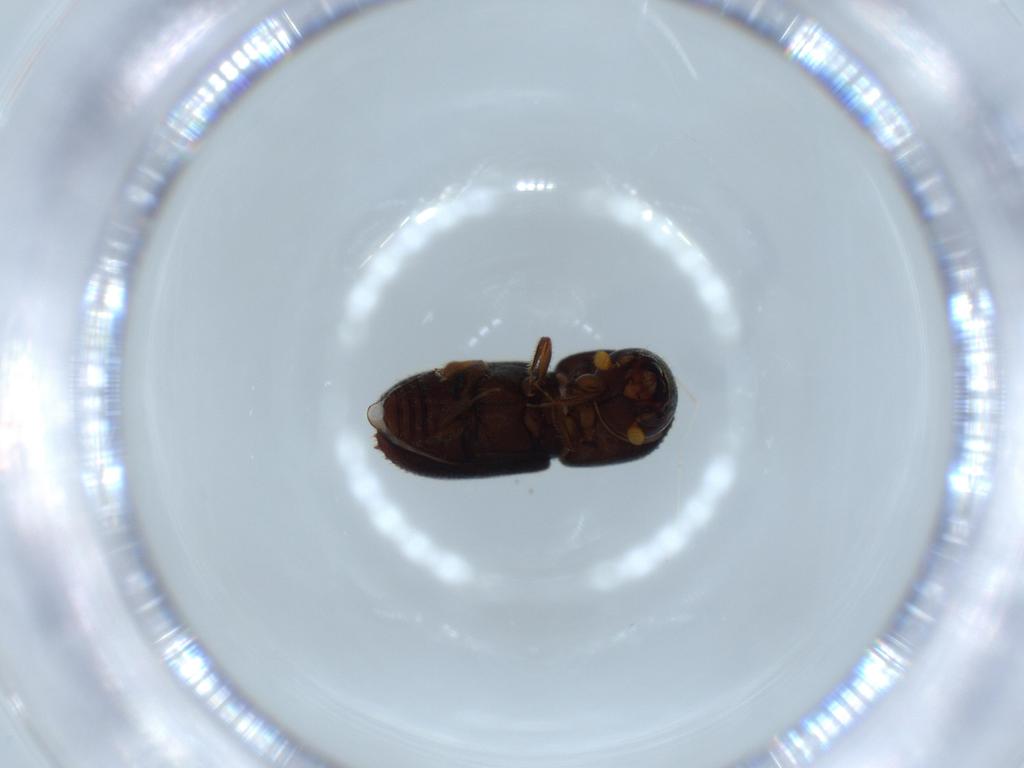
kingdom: Animalia
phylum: Arthropoda
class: Insecta
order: Coleoptera
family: Curculionidae
